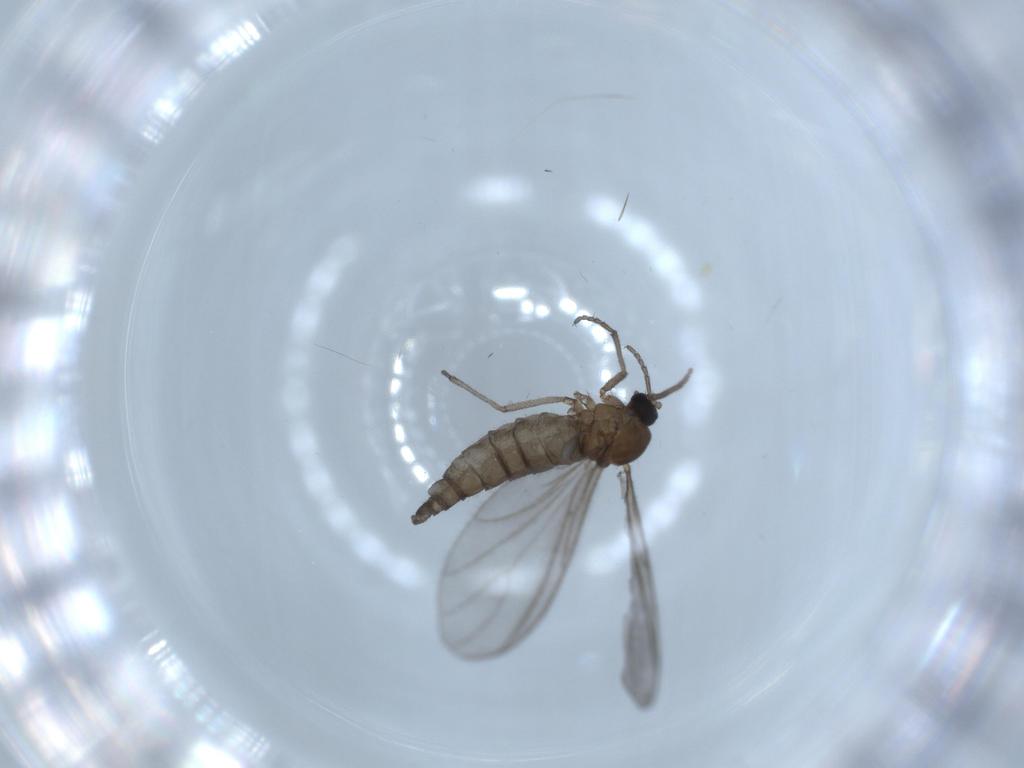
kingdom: Animalia
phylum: Arthropoda
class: Insecta
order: Diptera
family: Sciaridae
